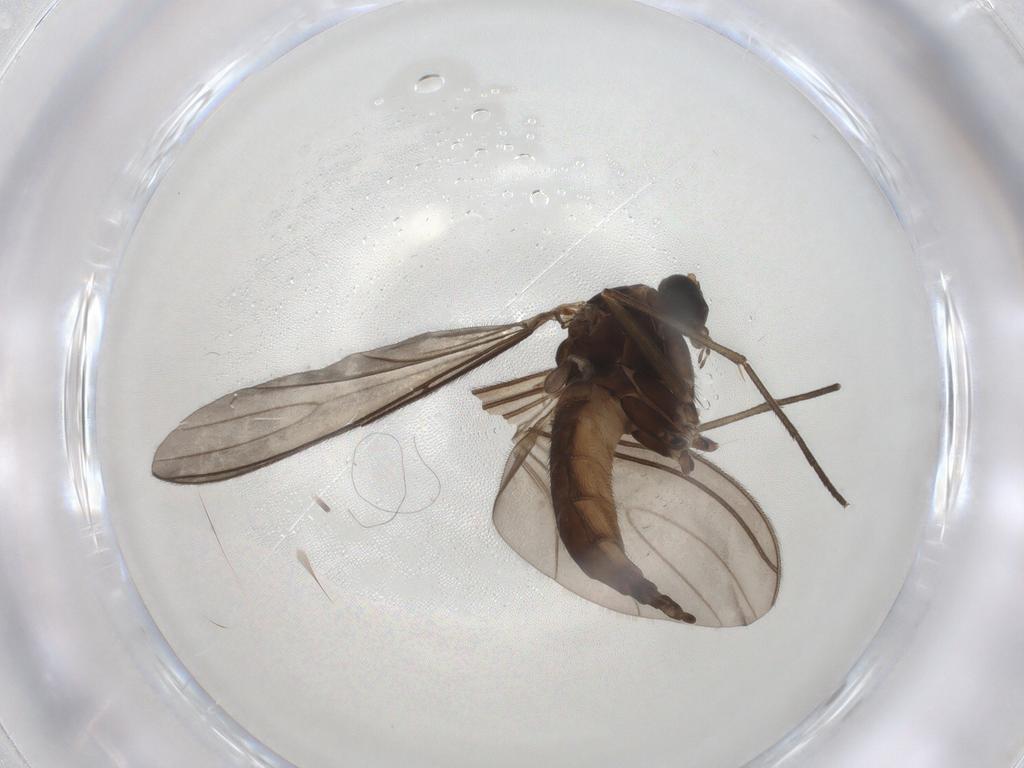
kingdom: Animalia
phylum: Arthropoda
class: Insecta
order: Diptera
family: Sciaridae
